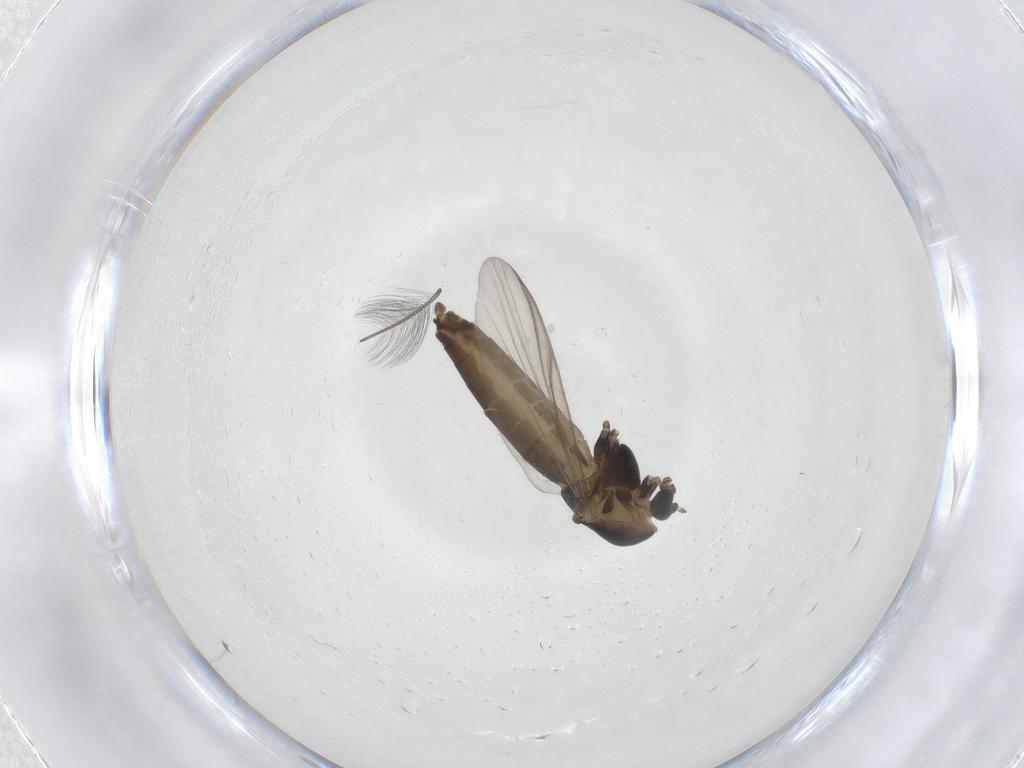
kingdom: Animalia
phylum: Arthropoda
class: Insecta
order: Diptera
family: Chironomidae
